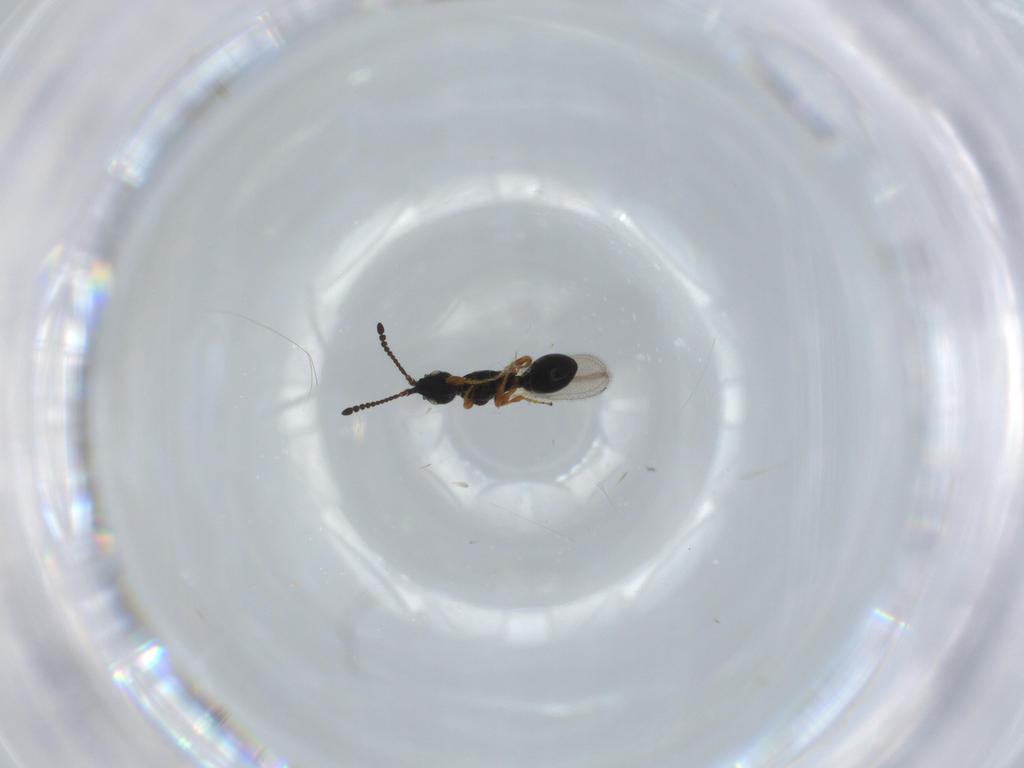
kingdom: Animalia
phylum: Arthropoda
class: Insecta
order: Hymenoptera
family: Diapriidae
